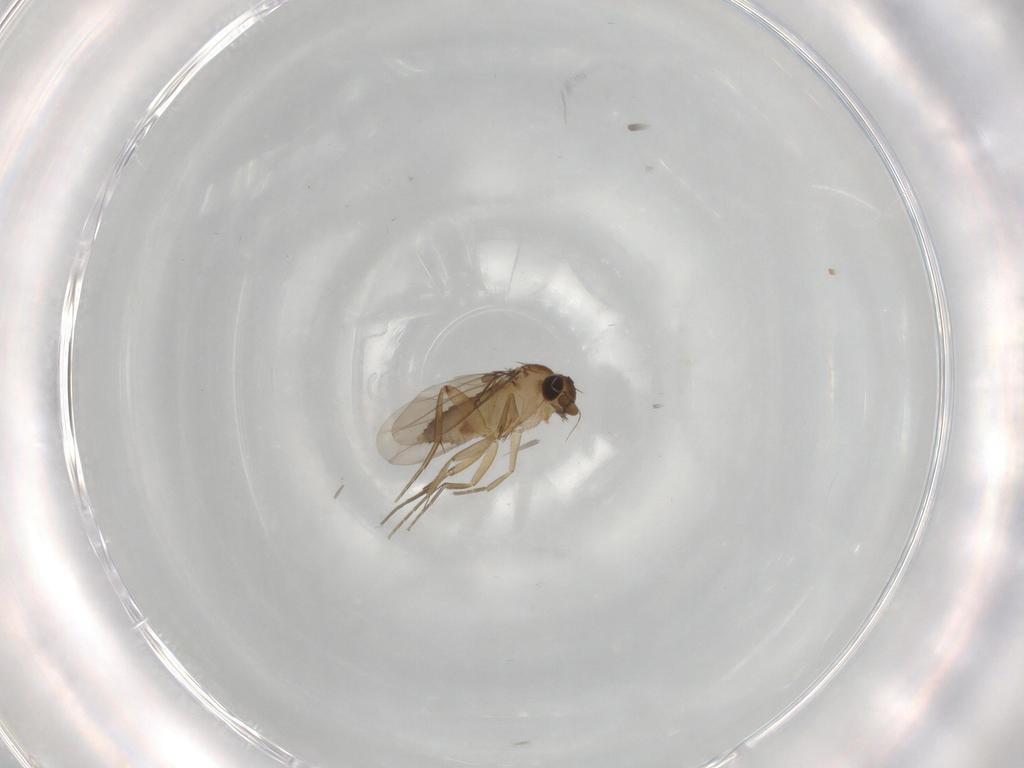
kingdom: Animalia
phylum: Arthropoda
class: Insecta
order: Diptera
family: Phoridae
